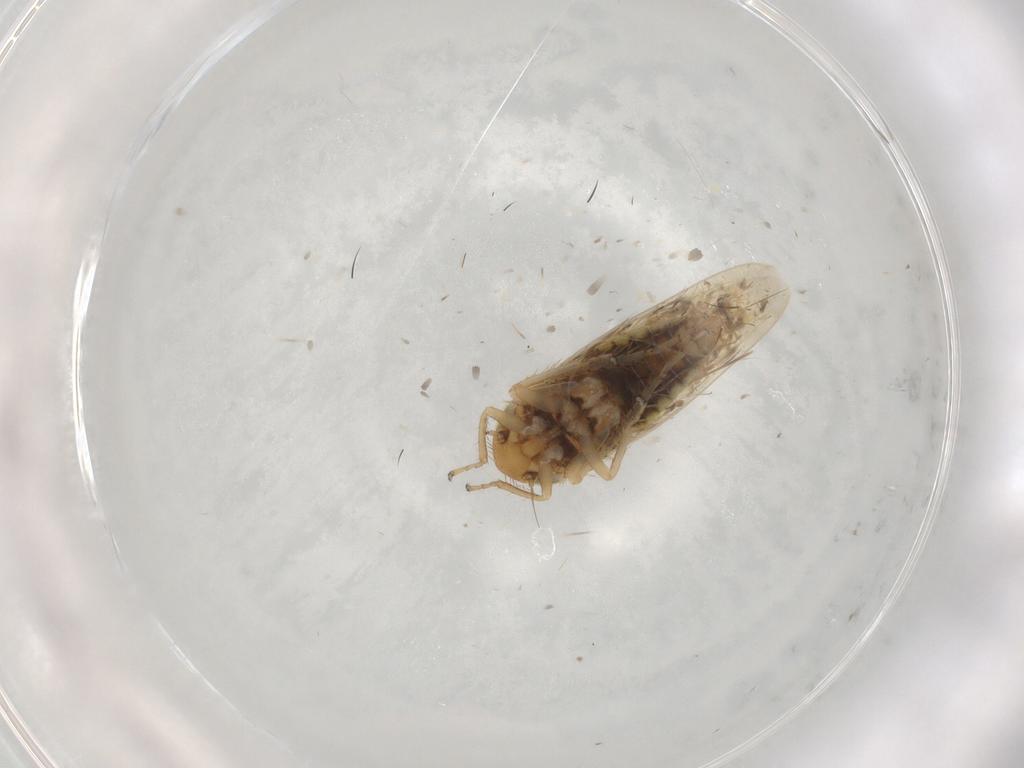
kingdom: Animalia
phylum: Arthropoda
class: Insecta
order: Hemiptera
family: Cicadellidae
